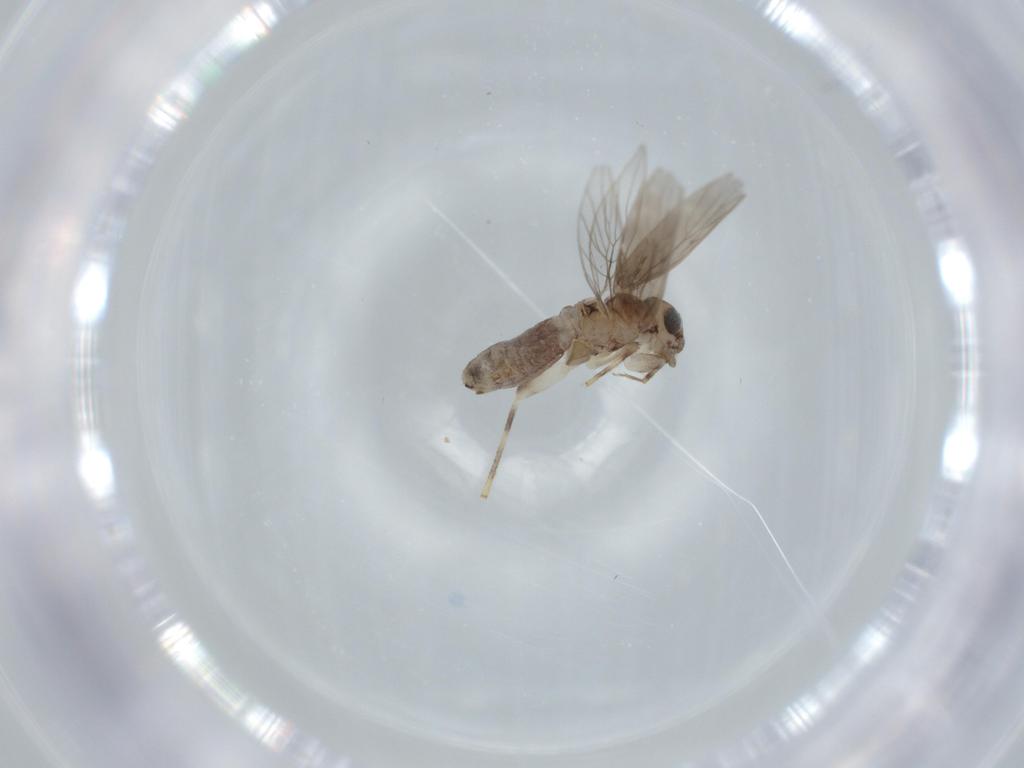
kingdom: Animalia
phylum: Arthropoda
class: Insecta
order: Psocodea
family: Lepidopsocidae
